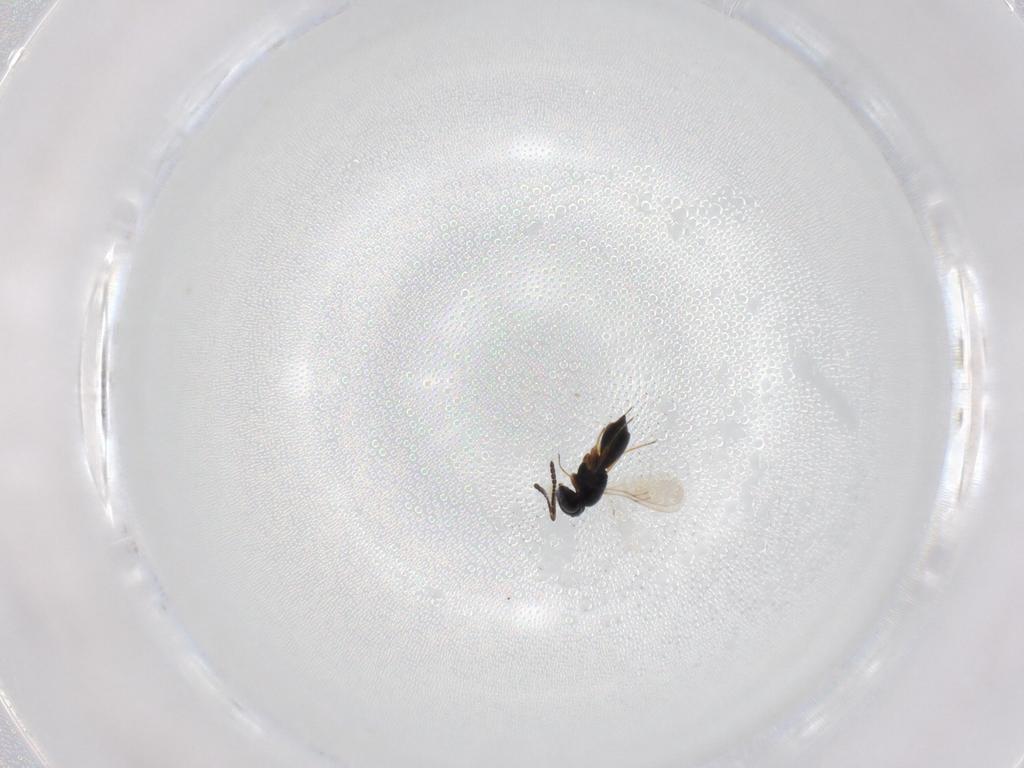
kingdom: Animalia
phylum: Arthropoda
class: Insecta
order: Hymenoptera
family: Scelionidae
